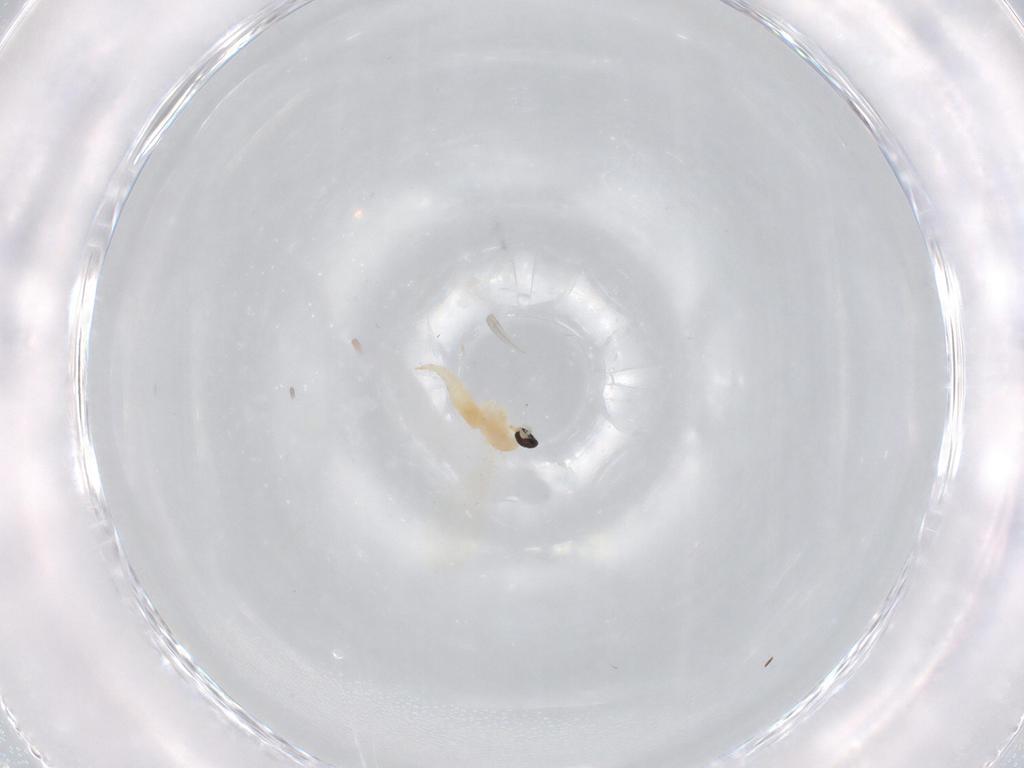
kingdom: Animalia
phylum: Arthropoda
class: Insecta
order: Diptera
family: Cecidomyiidae
